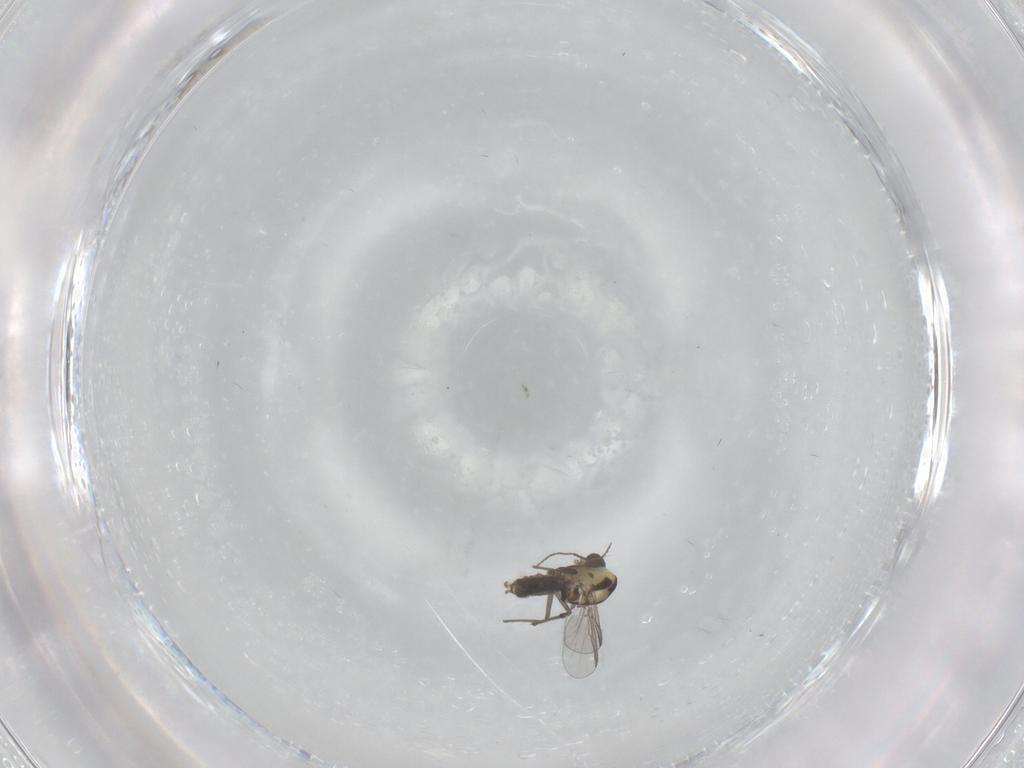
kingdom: Animalia
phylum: Arthropoda
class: Insecta
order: Diptera
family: Chironomidae
